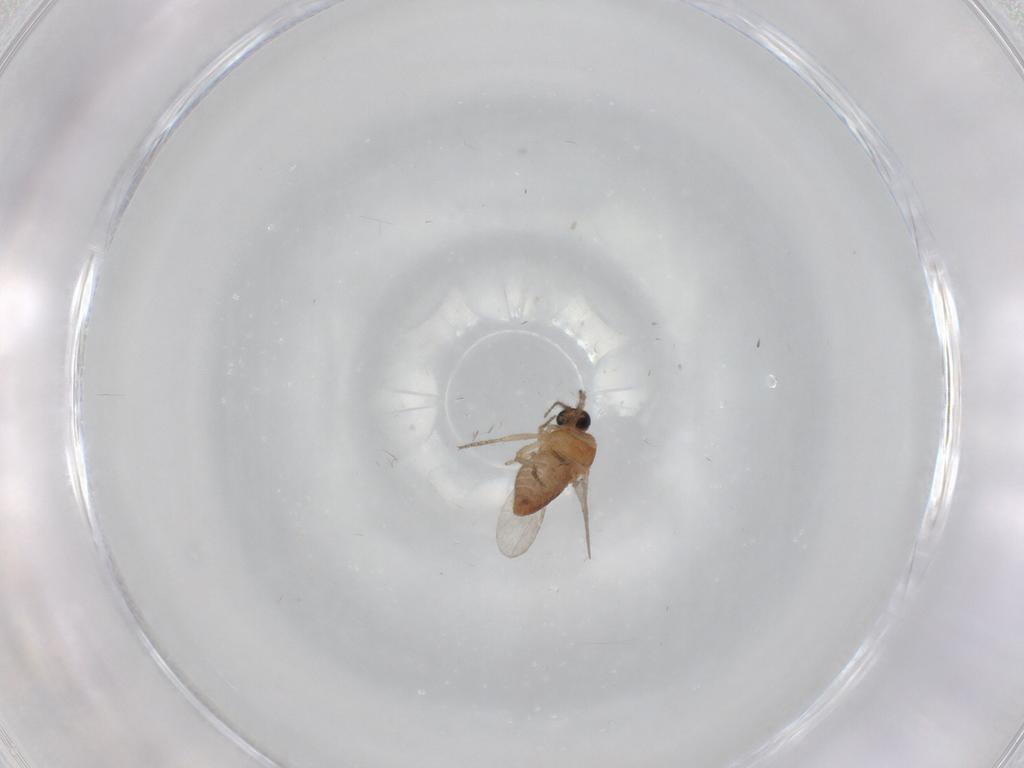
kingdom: Animalia
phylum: Arthropoda
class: Insecta
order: Diptera
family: Ceratopogonidae
